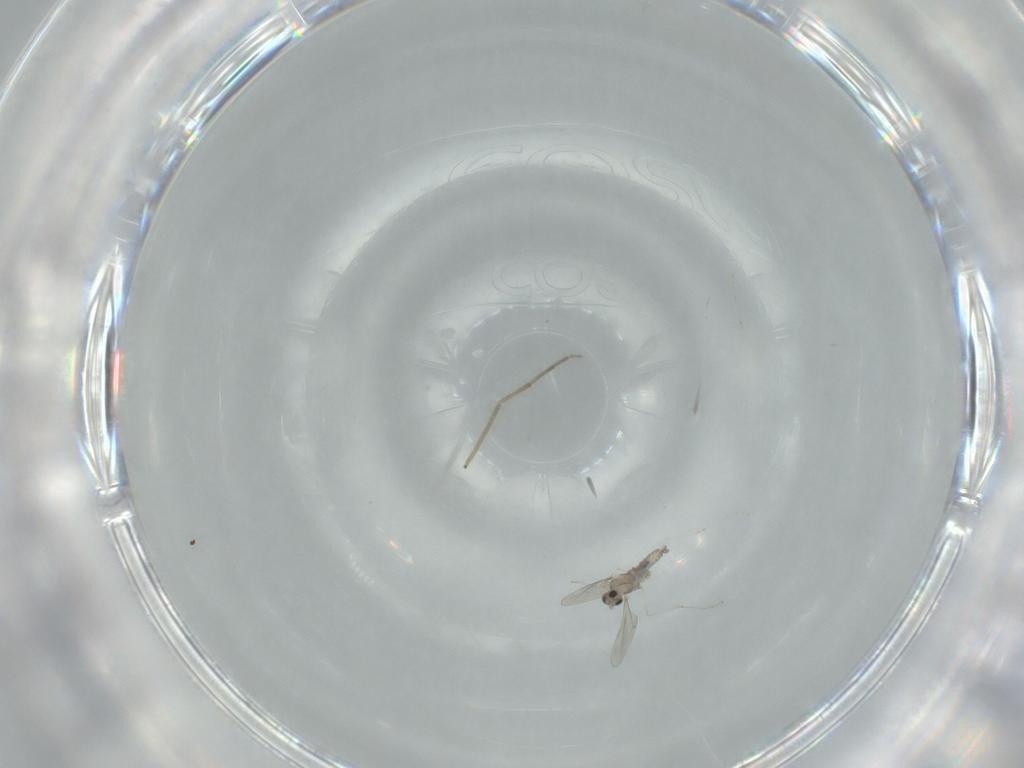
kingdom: Animalia
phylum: Arthropoda
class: Insecta
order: Diptera
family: Cecidomyiidae
